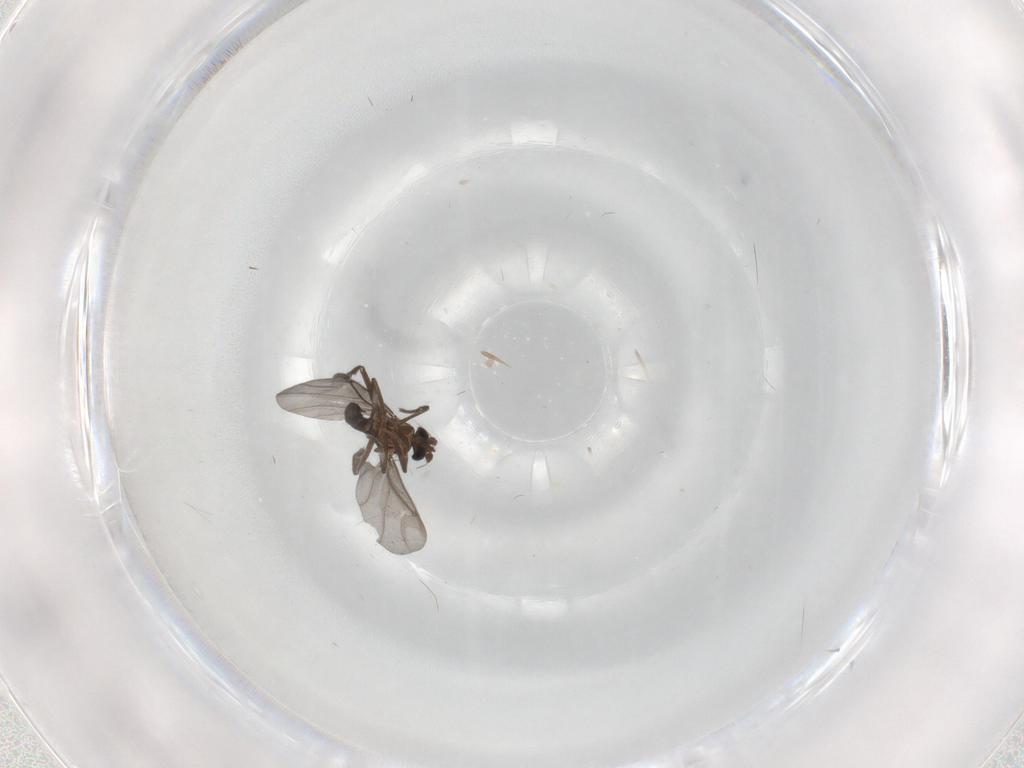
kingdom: Animalia
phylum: Arthropoda
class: Insecta
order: Diptera
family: Phoridae
